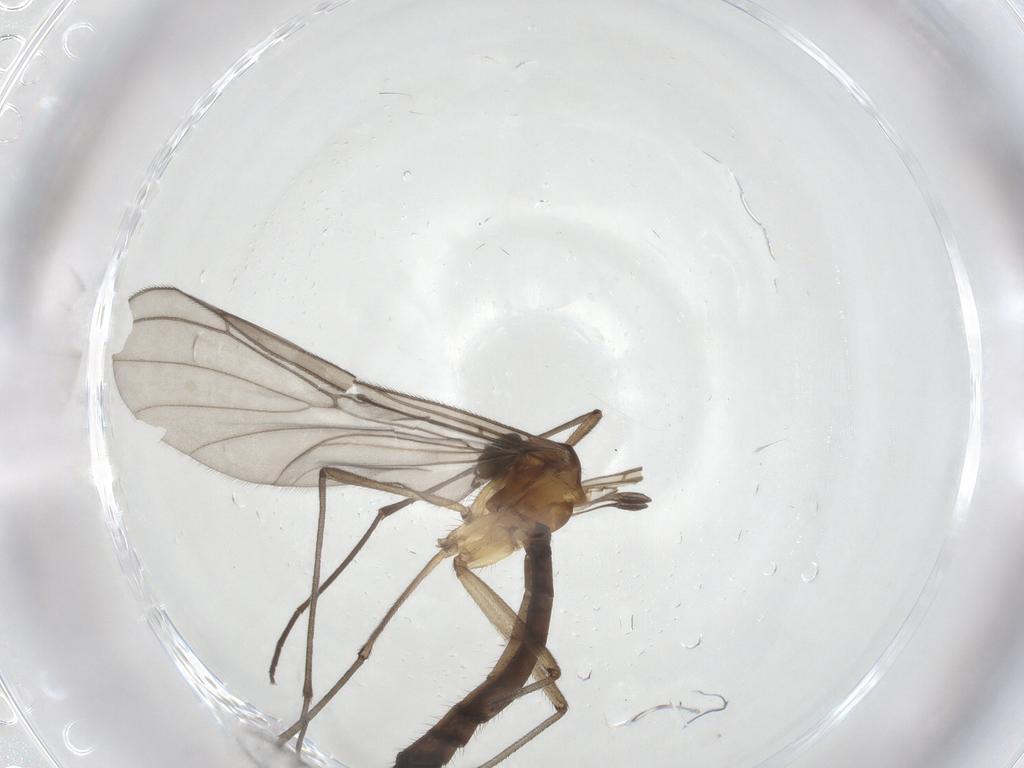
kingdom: Animalia
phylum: Arthropoda
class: Insecta
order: Diptera
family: Bolitophilidae
